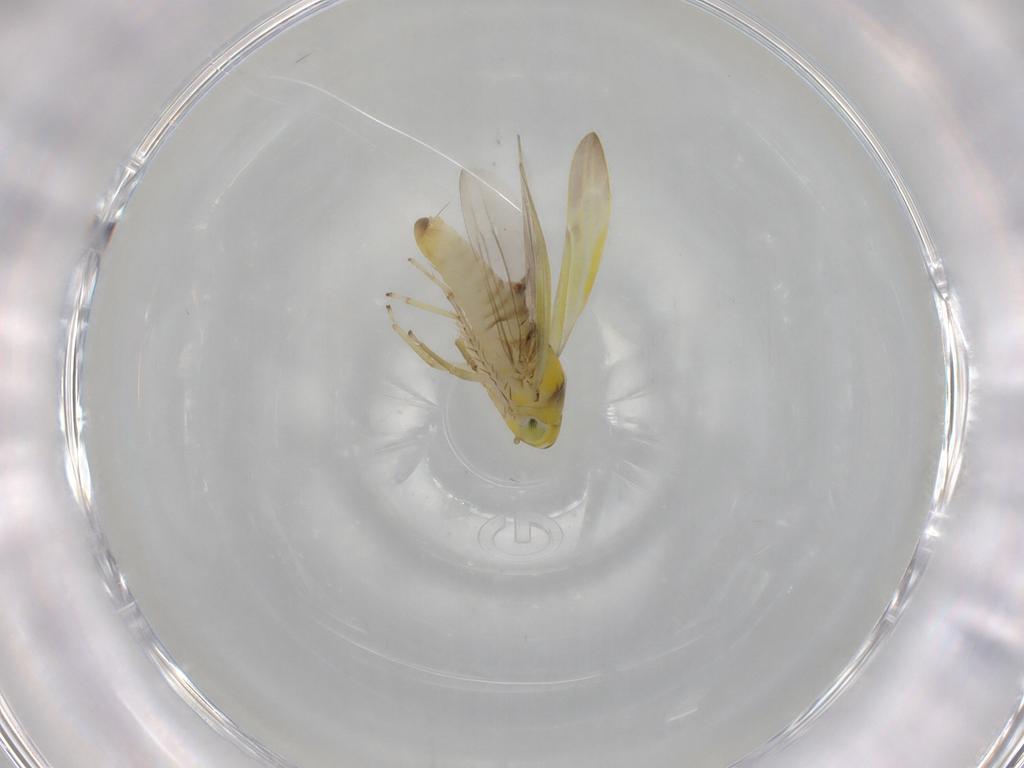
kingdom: Animalia
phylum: Arthropoda
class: Insecta
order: Hemiptera
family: Cicadellidae
